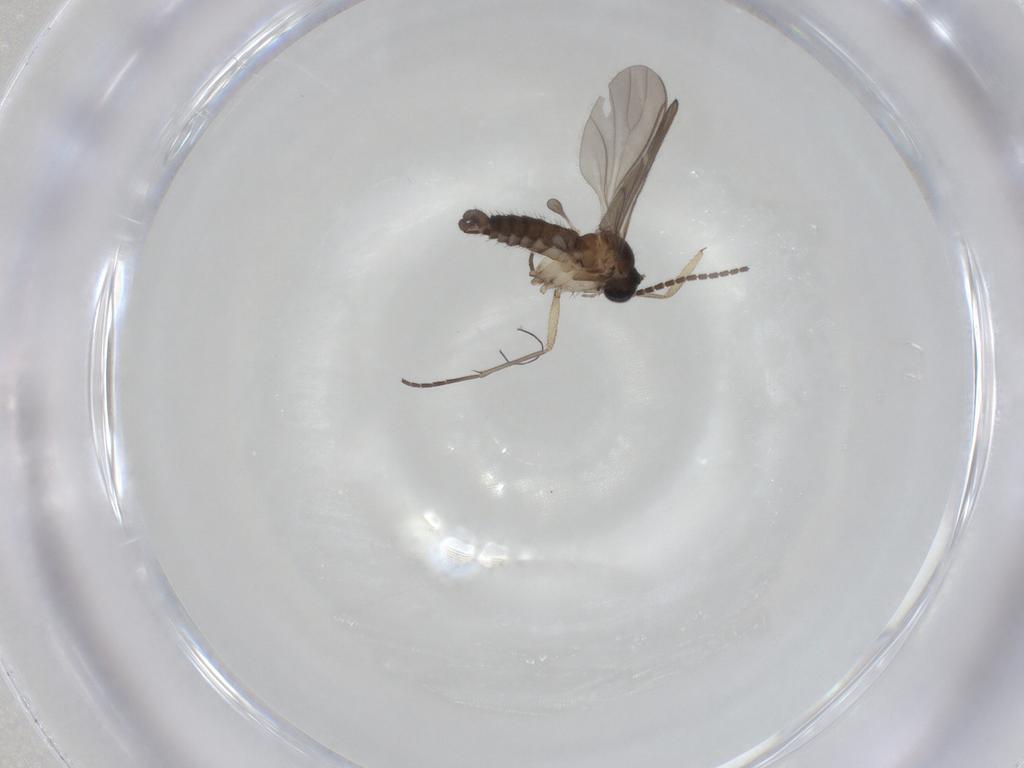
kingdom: Animalia
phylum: Arthropoda
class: Insecta
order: Diptera
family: Sciaridae
